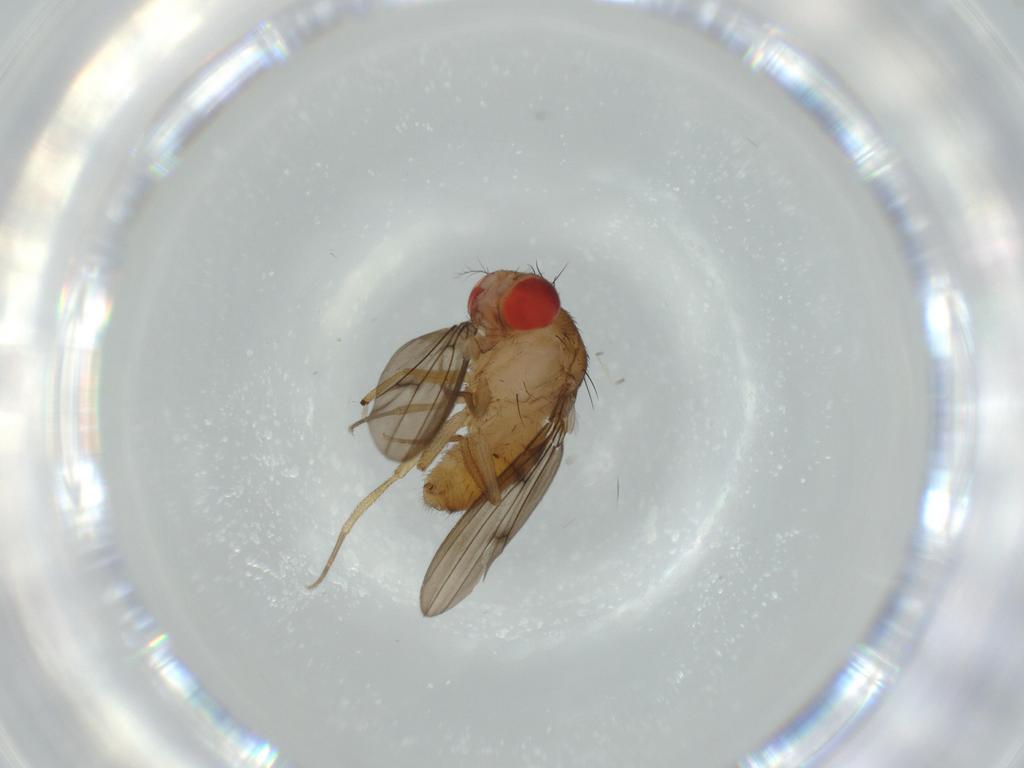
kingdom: Animalia
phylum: Arthropoda
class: Insecta
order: Diptera
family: Drosophilidae
